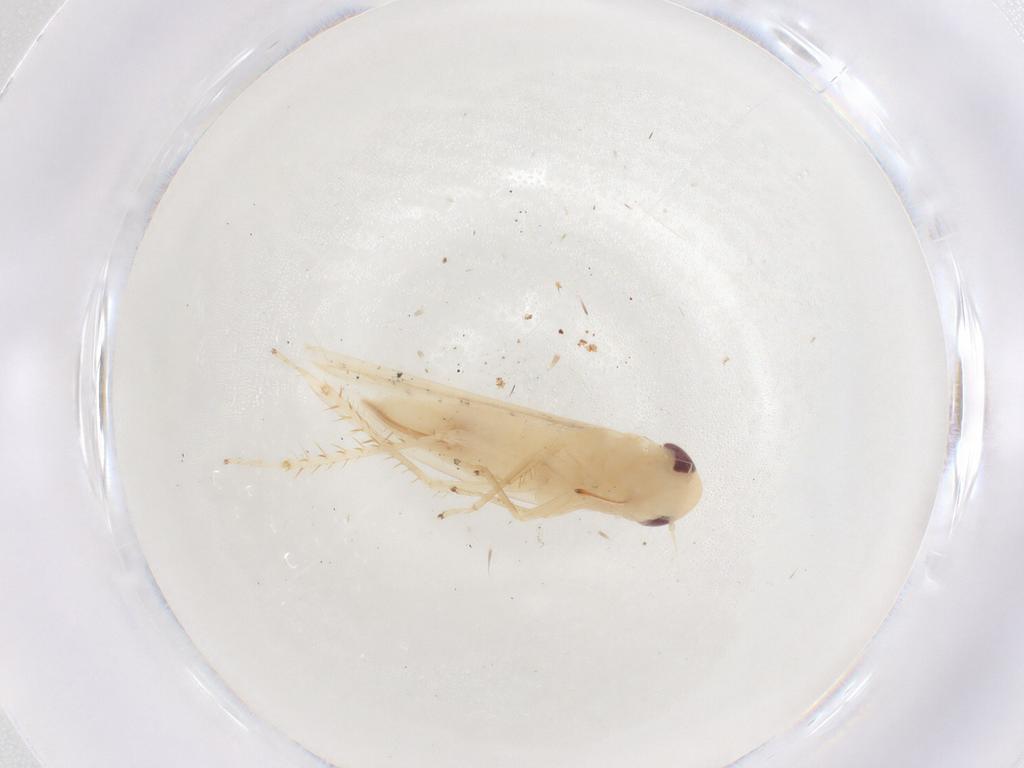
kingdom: Animalia
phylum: Arthropoda
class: Insecta
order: Hemiptera
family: Cicadellidae
